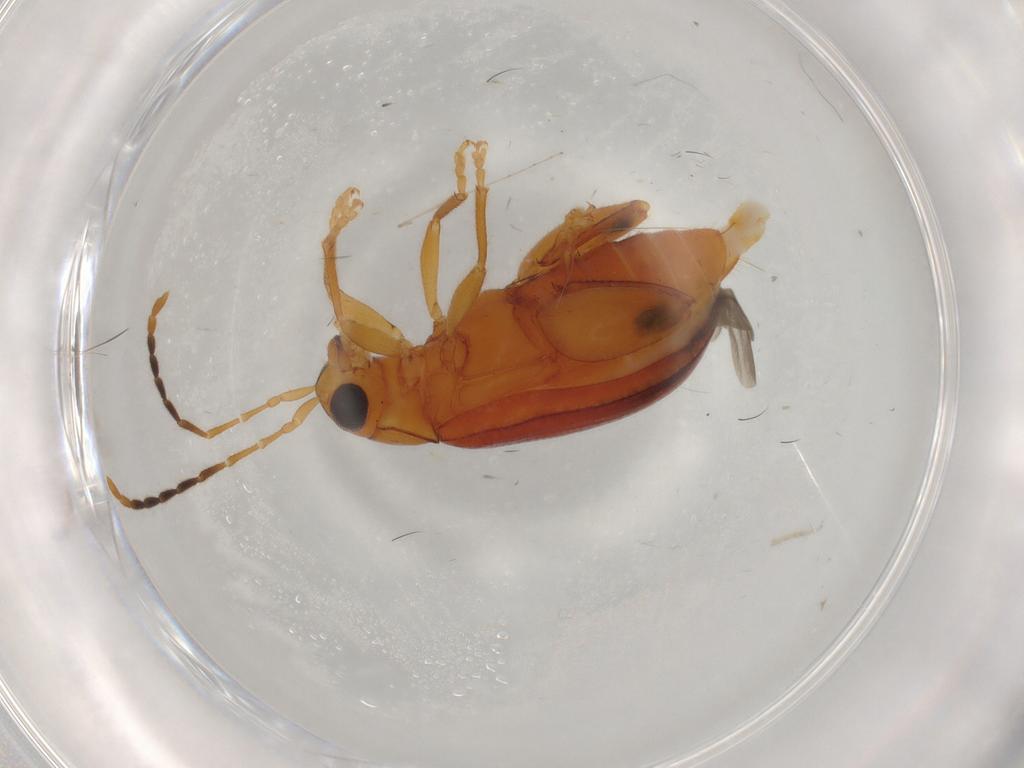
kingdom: Animalia
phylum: Arthropoda
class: Insecta
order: Coleoptera
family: Chrysomelidae
